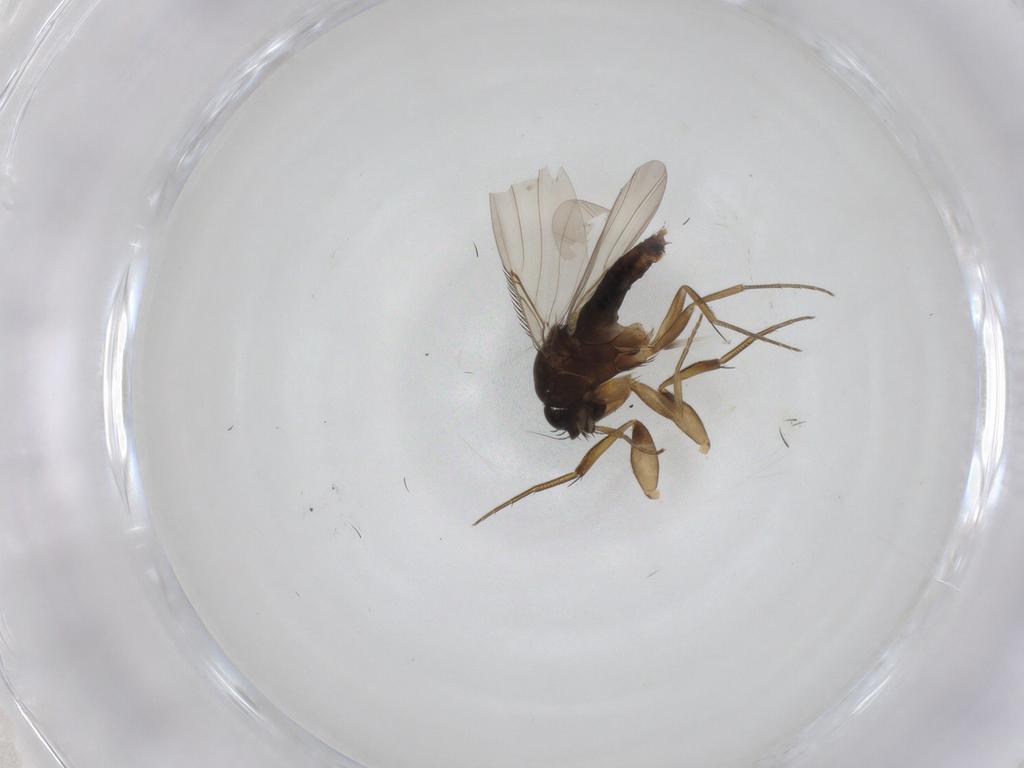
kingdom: Animalia
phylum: Arthropoda
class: Insecta
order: Diptera
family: Phoridae
